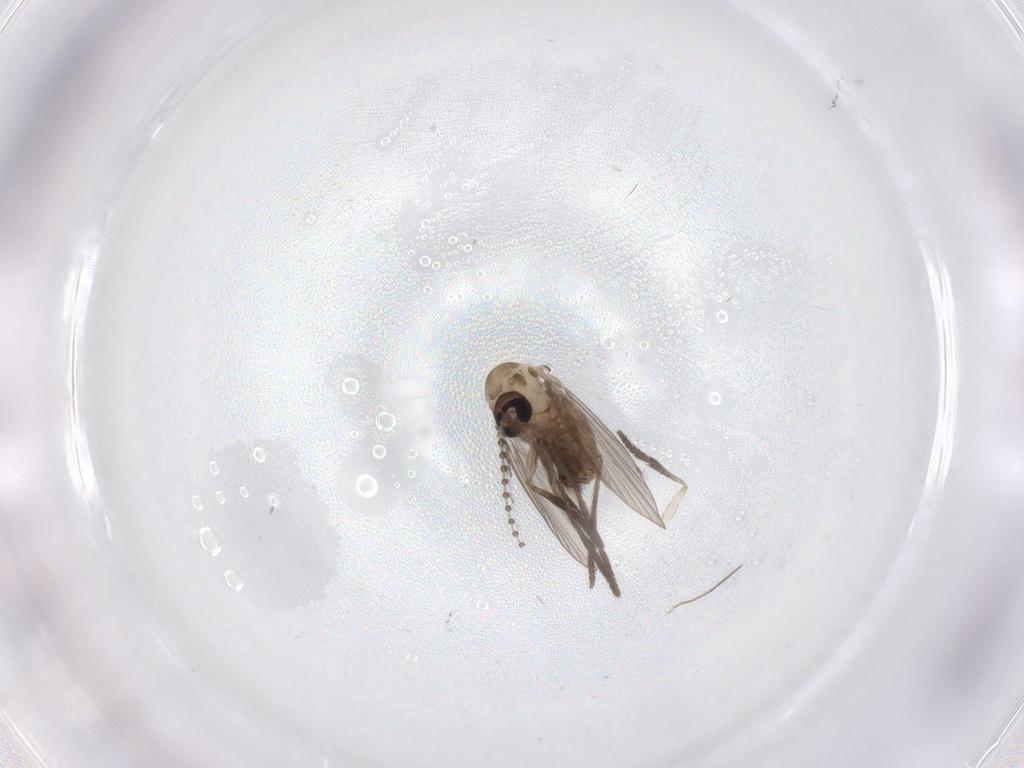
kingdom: Animalia
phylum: Arthropoda
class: Insecta
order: Diptera
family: Psychodidae
